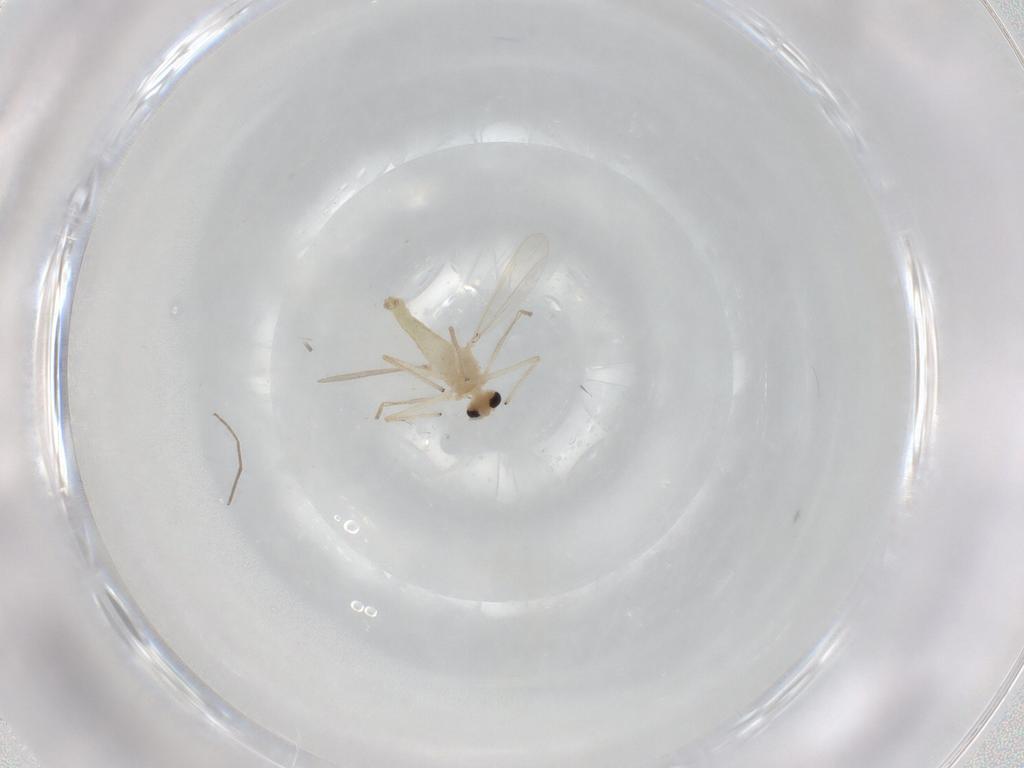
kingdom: Animalia
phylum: Arthropoda
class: Insecta
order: Diptera
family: Chironomidae
